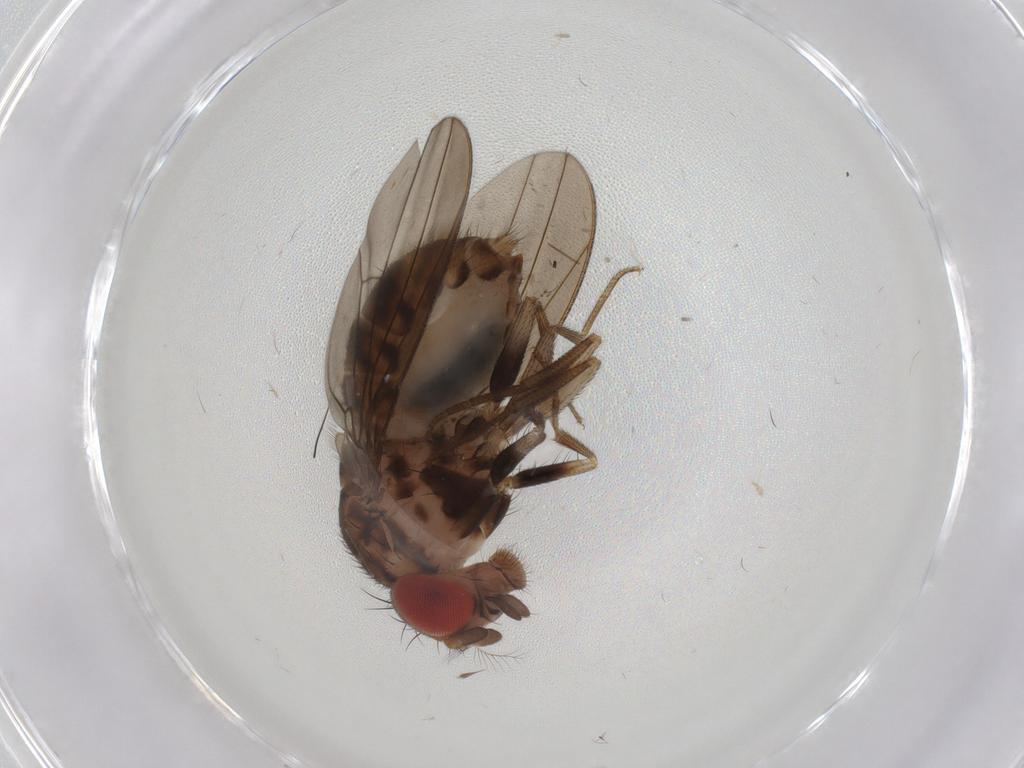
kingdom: Animalia
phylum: Arthropoda
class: Insecta
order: Diptera
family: Drosophilidae
